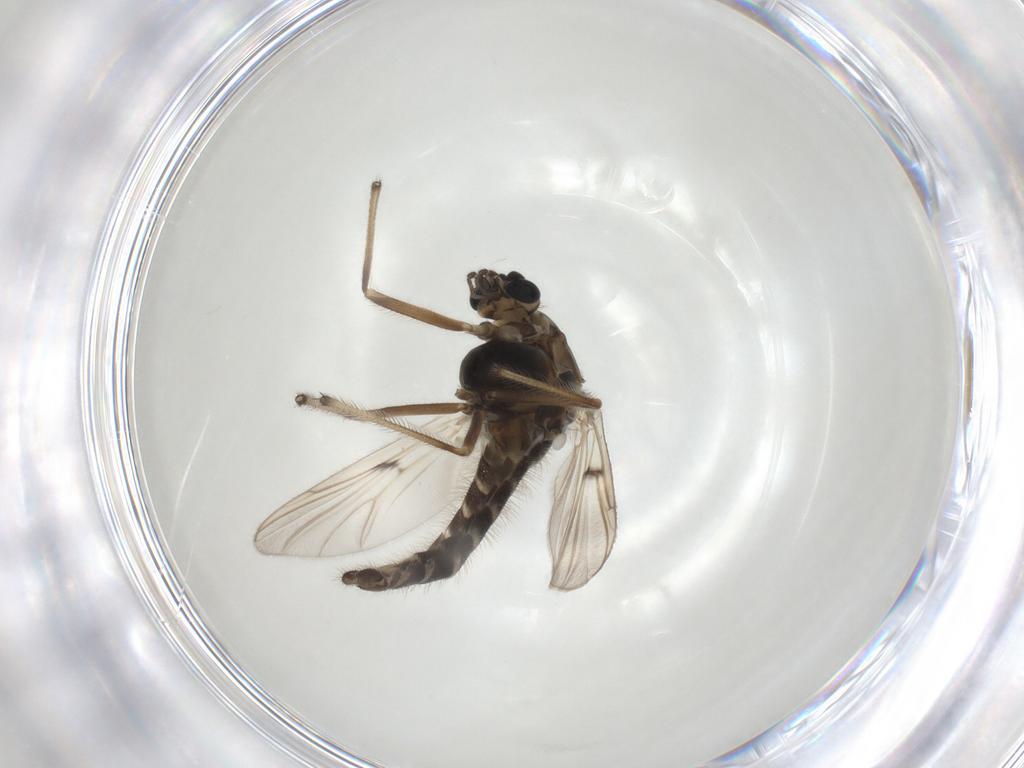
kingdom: Animalia
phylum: Arthropoda
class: Insecta
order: Diptera
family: Chironomidae
